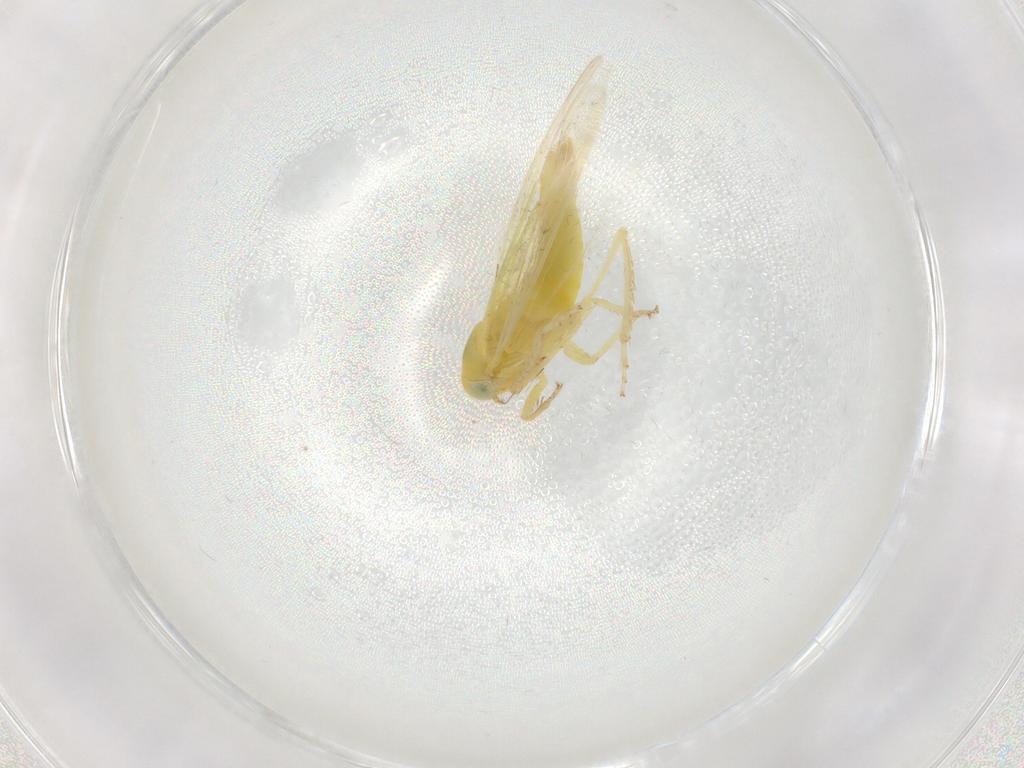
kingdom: Animalia
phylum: Arthropoda
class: Insecta
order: Hemiptera
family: Cicadellidae
